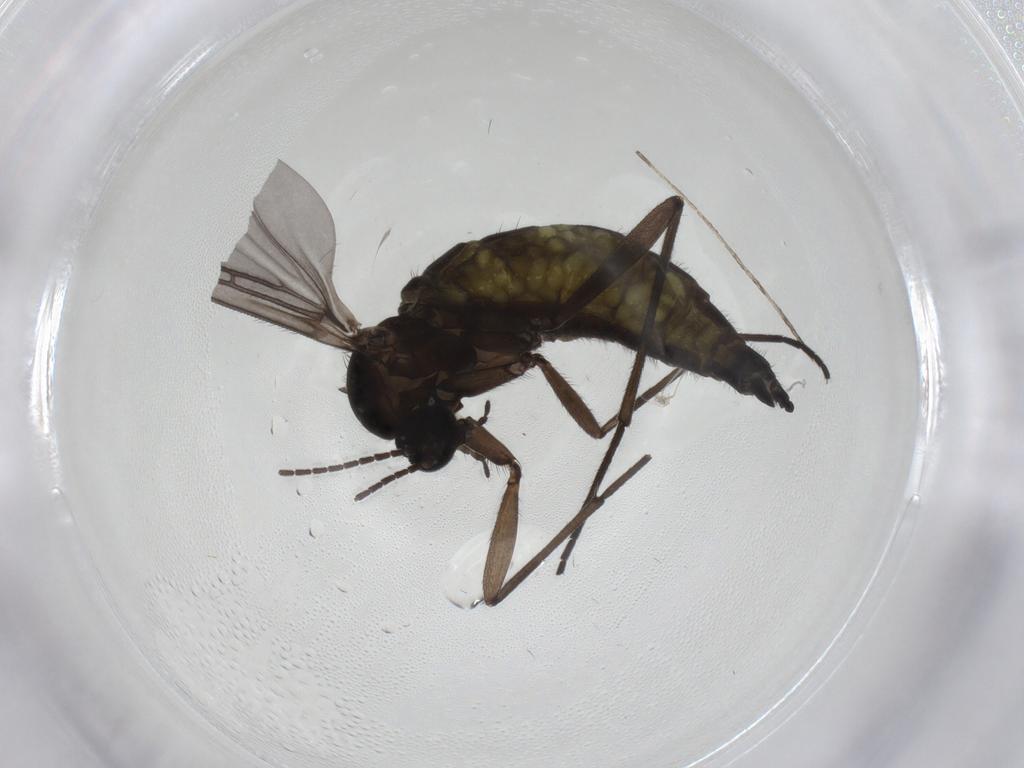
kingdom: Animalia
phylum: Arthropoda
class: Insecta
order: Diptera
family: Sciaridae
